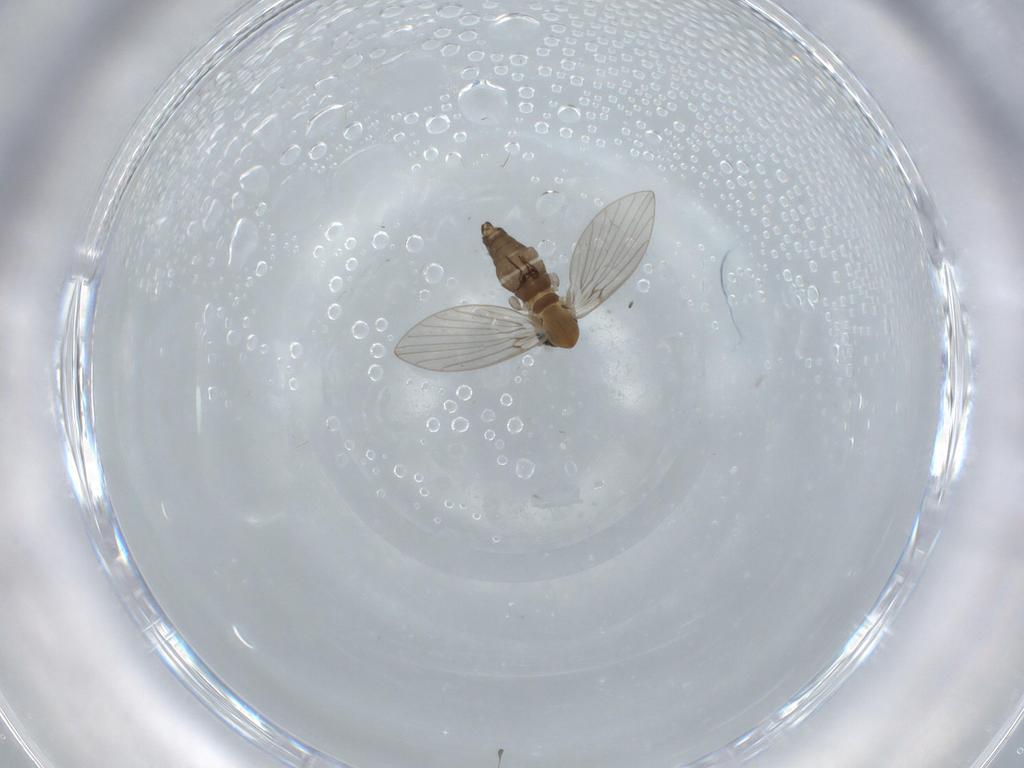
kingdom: Animalia
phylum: Arthropoda
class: Insecta
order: Diptera
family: Psychodidae
